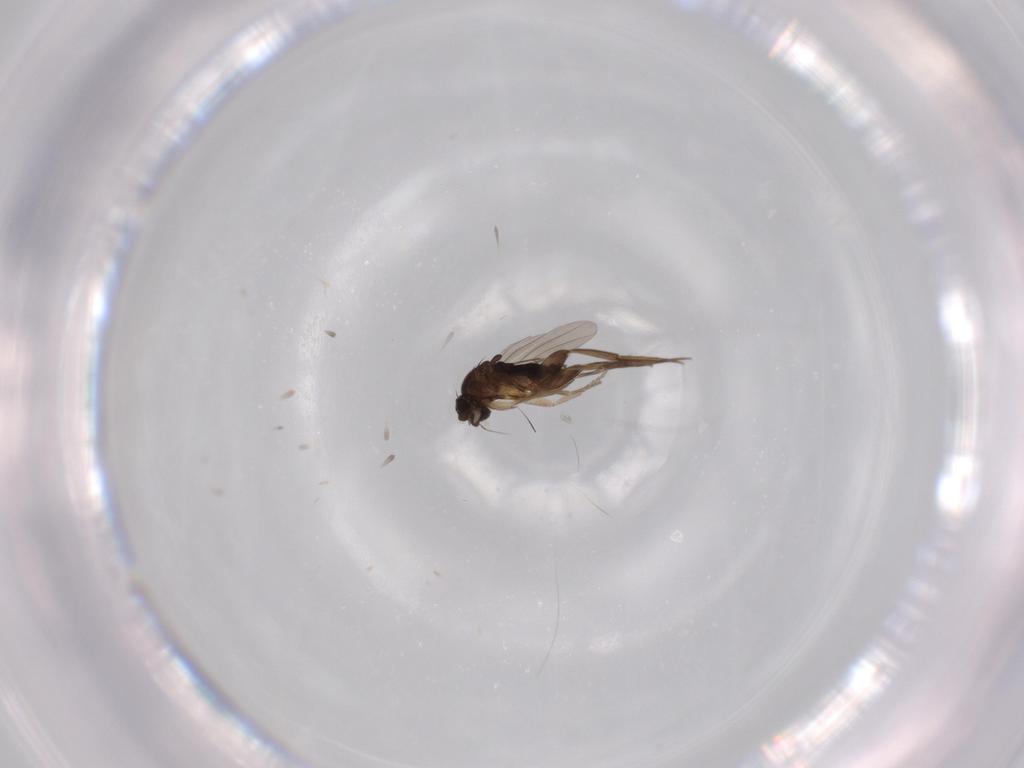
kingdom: Animalia
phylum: Arthropoda
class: Insecta
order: Diptera
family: Phoridae
